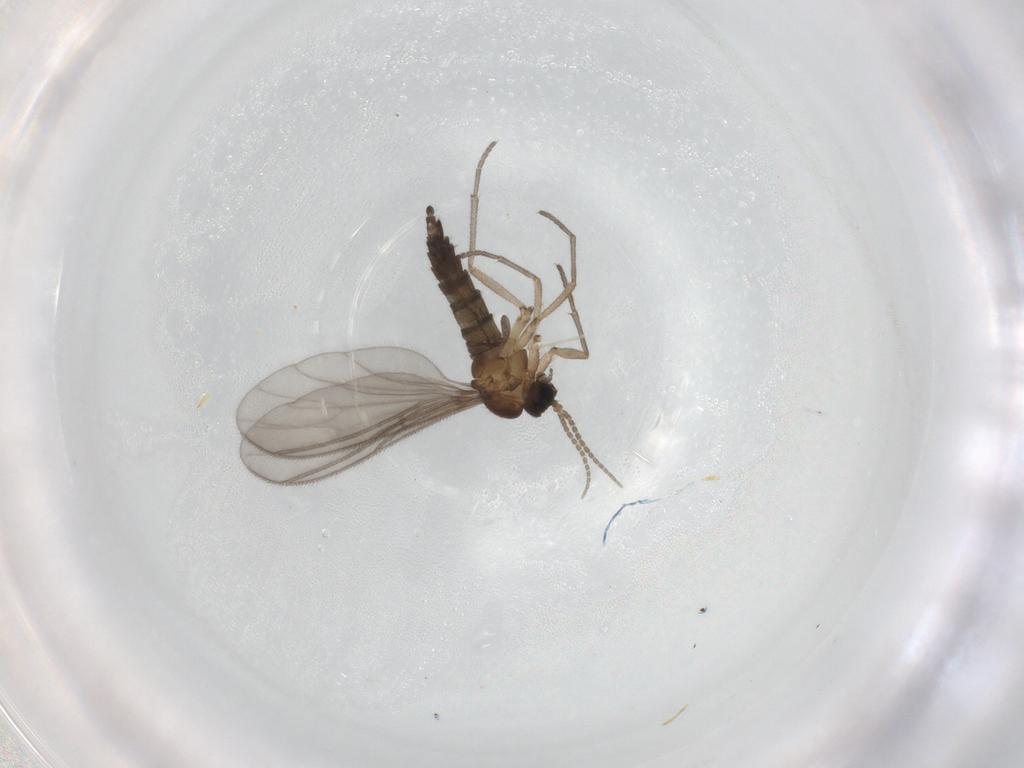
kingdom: Animalia
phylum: Arthropoda
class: Insecta
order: Diptera
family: Sciaridae
